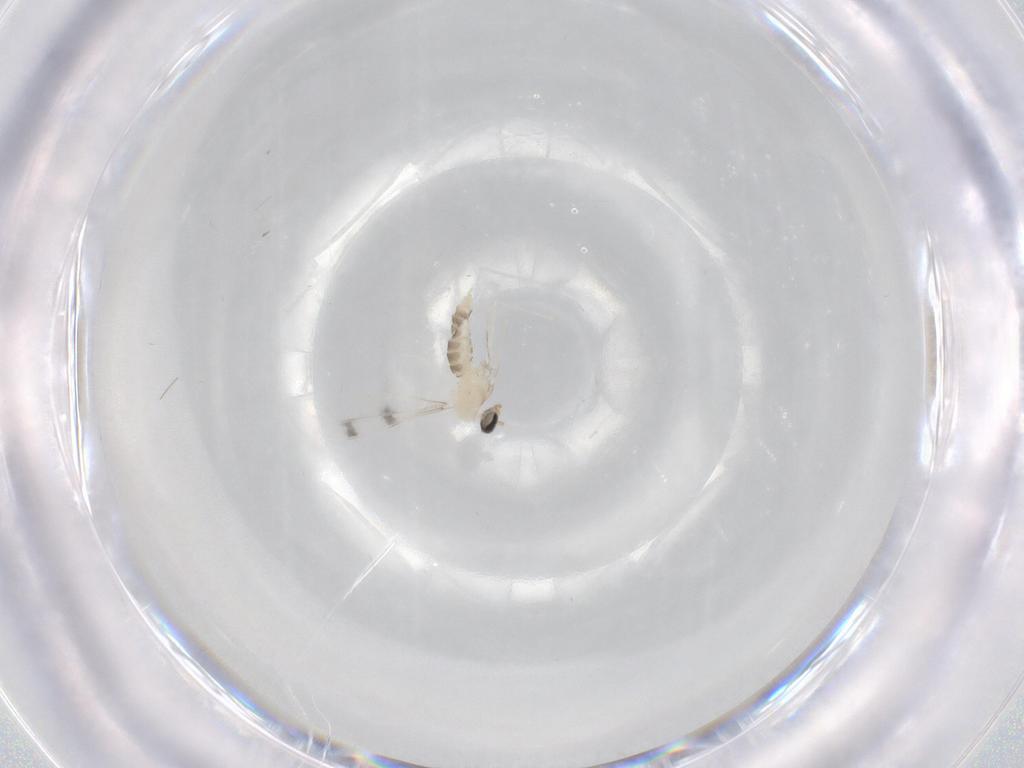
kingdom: Animalia
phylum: Arthropoda
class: Insecta
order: Diptera
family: Cecidomyiidae
